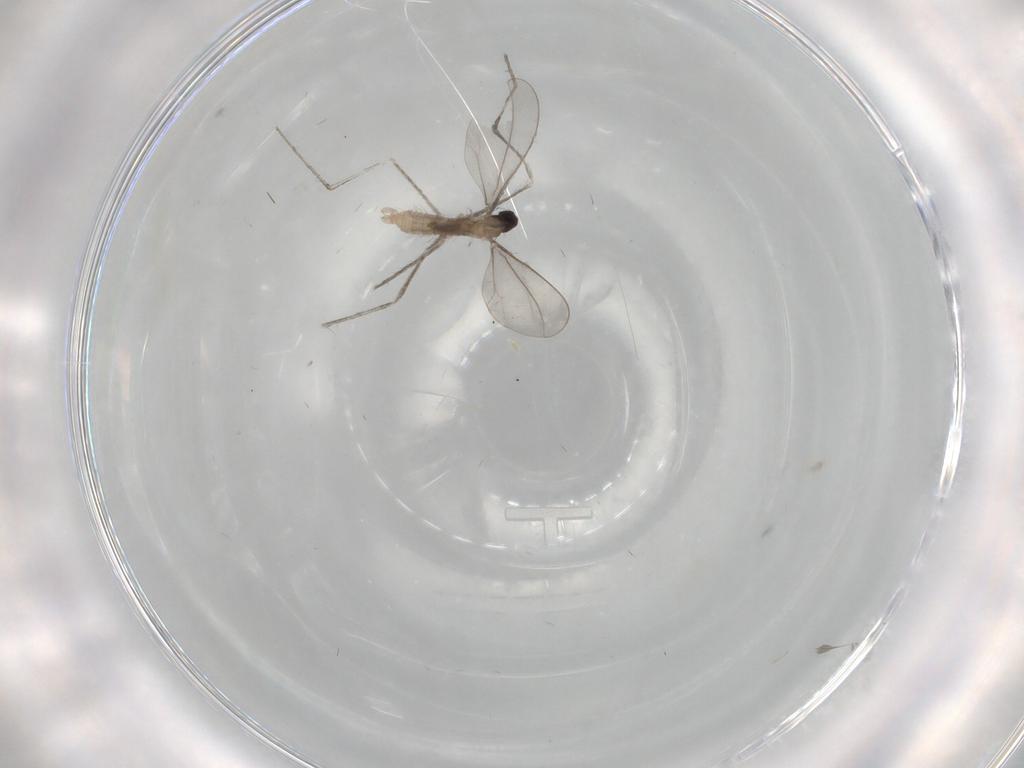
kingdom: Animalia
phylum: Arthropoda
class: Insecta
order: Diptera
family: Cecidomyiidae
